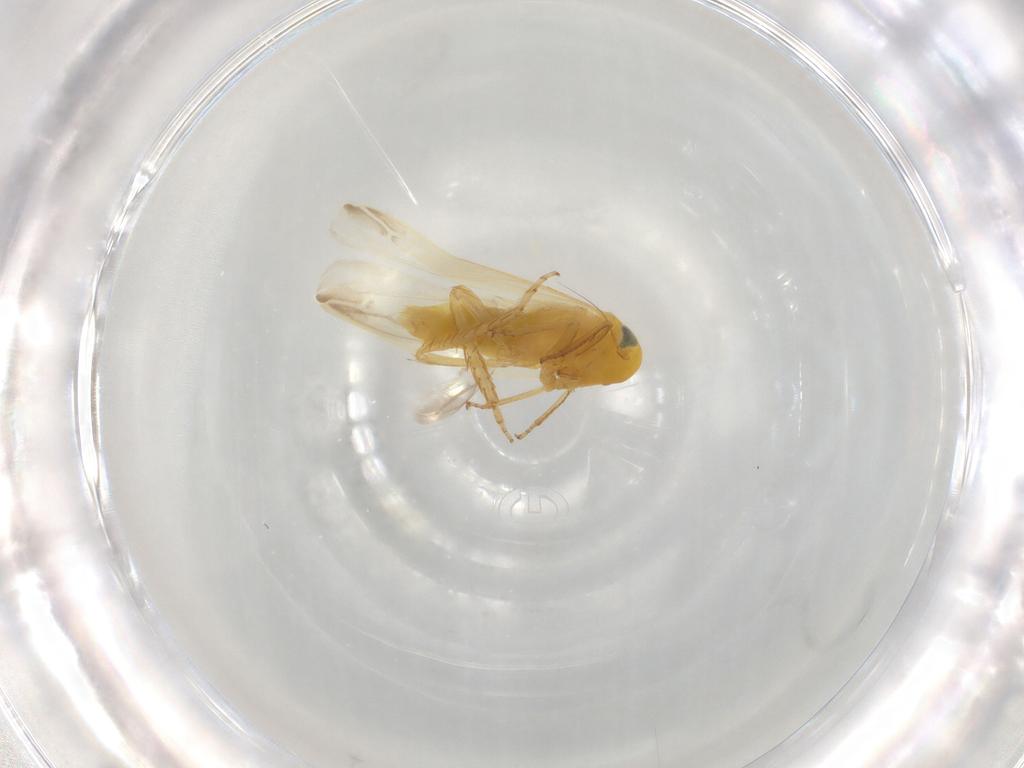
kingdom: Animalia
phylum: Arthropoda
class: Insecta
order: Hemiptera
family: Cicadellidae
